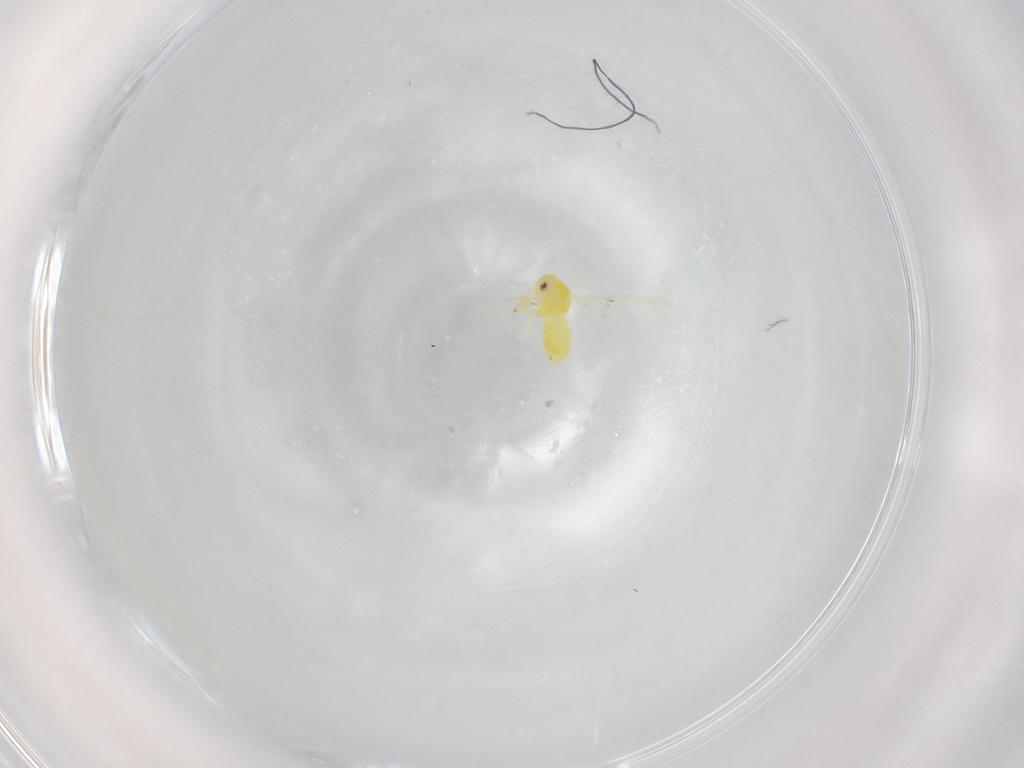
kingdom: Animalia
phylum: Arthropoda
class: Insecta
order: Hemiptera
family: Aleyrodidae
